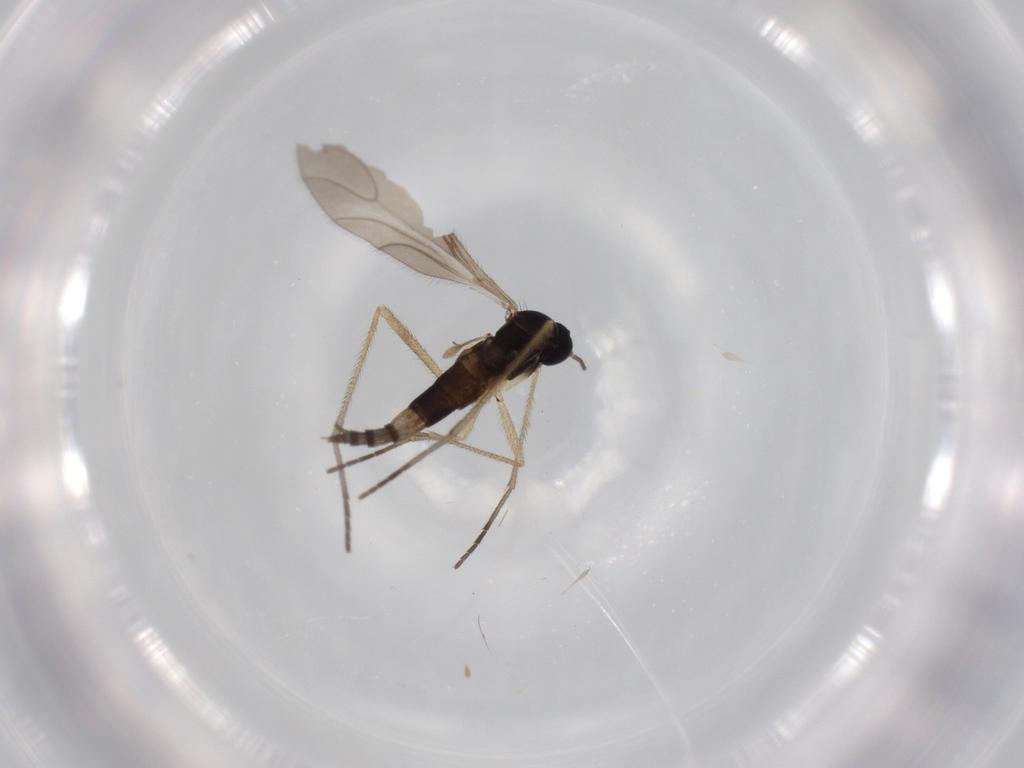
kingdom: Animalia
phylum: Arthropoda
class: Insecta
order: Diptera
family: Sciaridae
